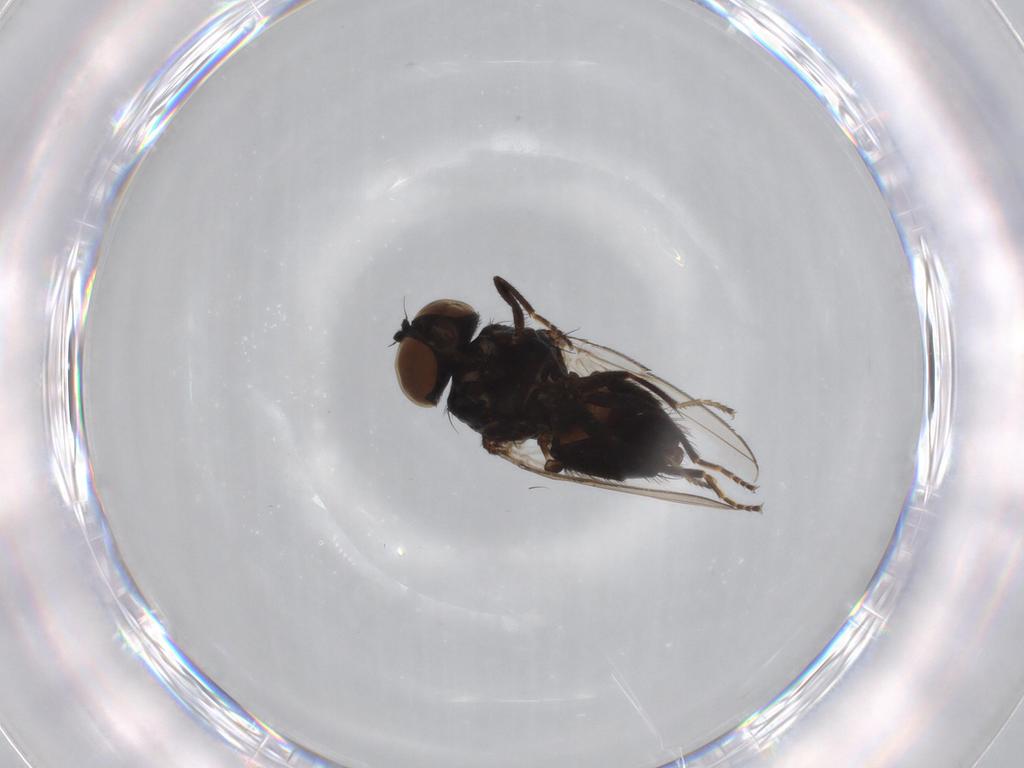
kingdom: Animalia
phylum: Arthropoda
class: Insecta
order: Diptera
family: Milichiidae
